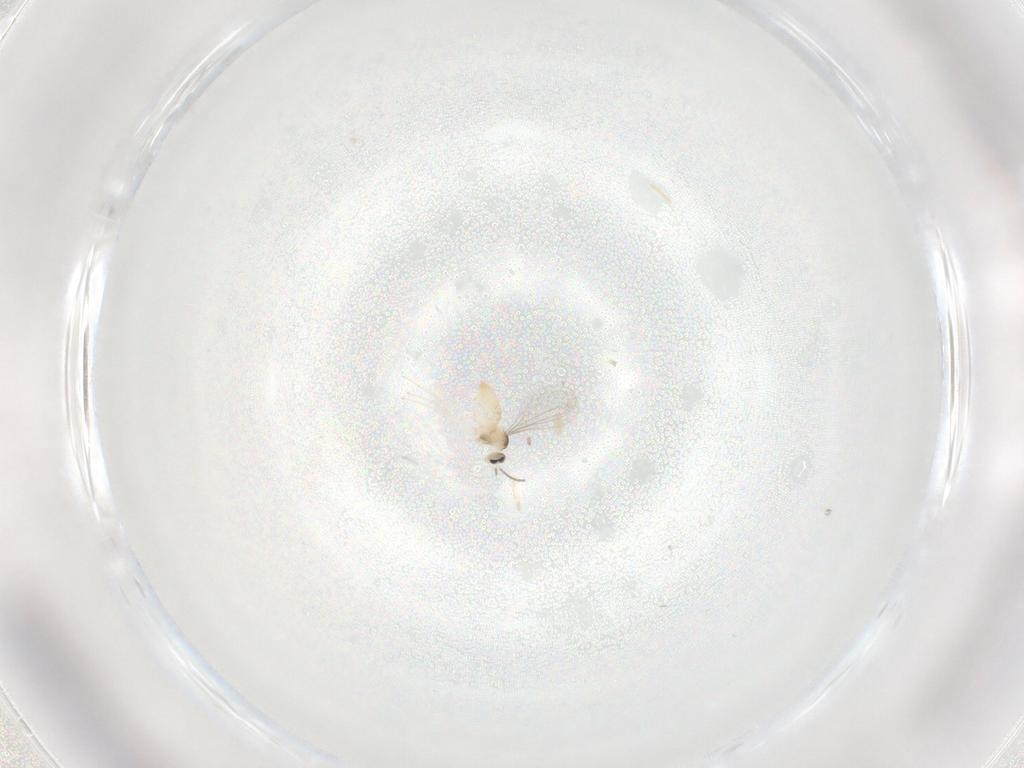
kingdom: Animalia
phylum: Arthropoda
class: Insecta
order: Diptera
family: Cecidomyiidae
